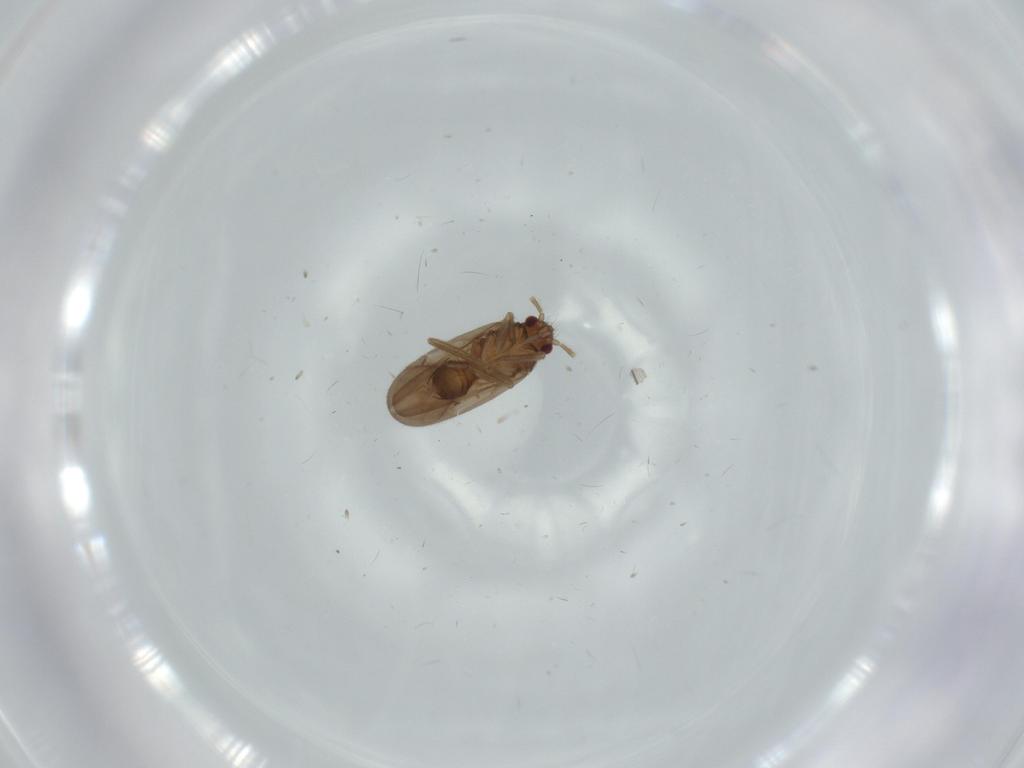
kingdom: Animalia
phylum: Arthropoda
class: Insecta
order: Hemiptera
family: Ceratocombidae
